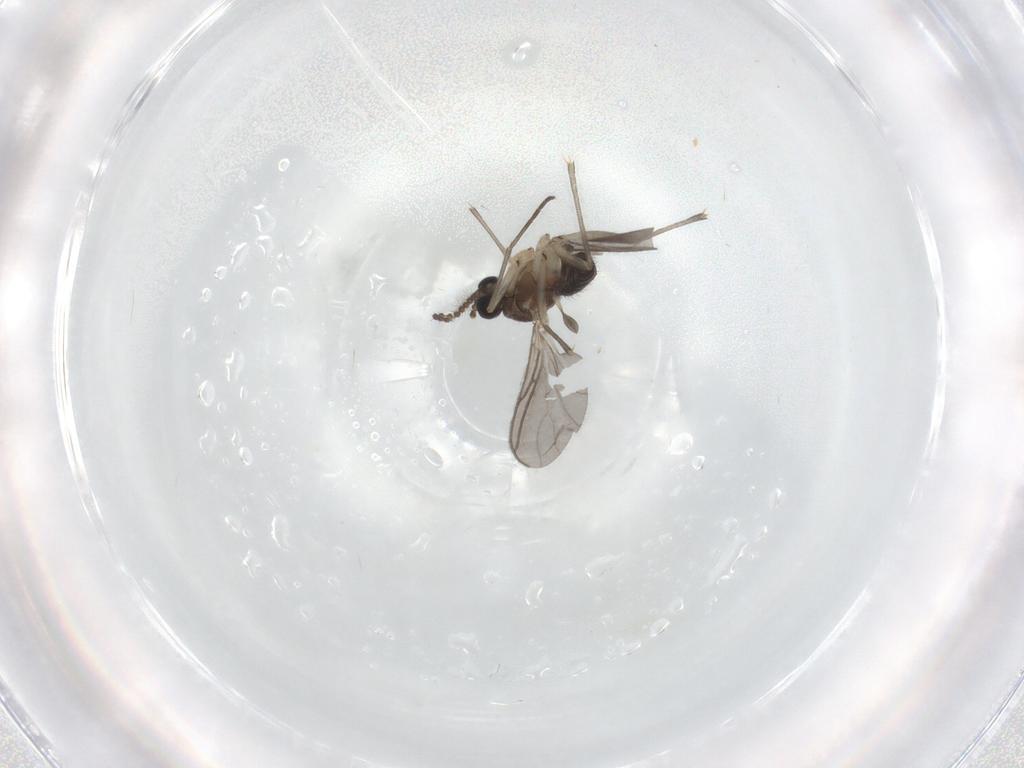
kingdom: Animalia
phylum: Arthropoda
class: Insecta
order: Diptera
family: Sciaridae
